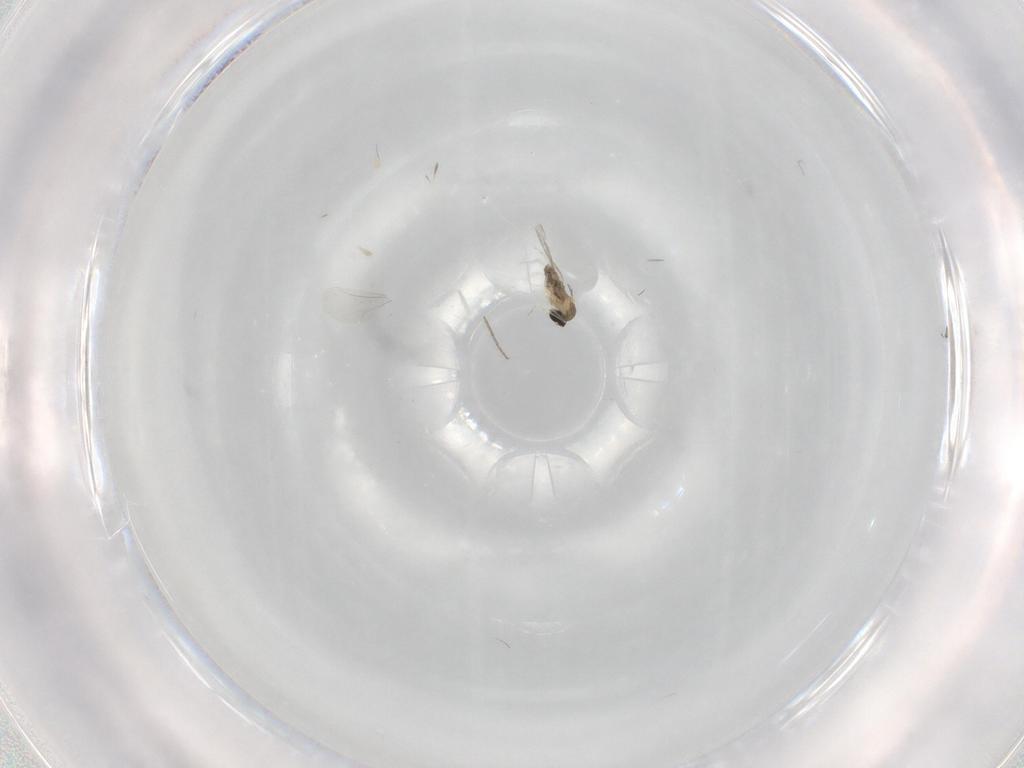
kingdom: Animalia
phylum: Arthropoda
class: Insecta
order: Diptera
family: Cecidomyiidae
